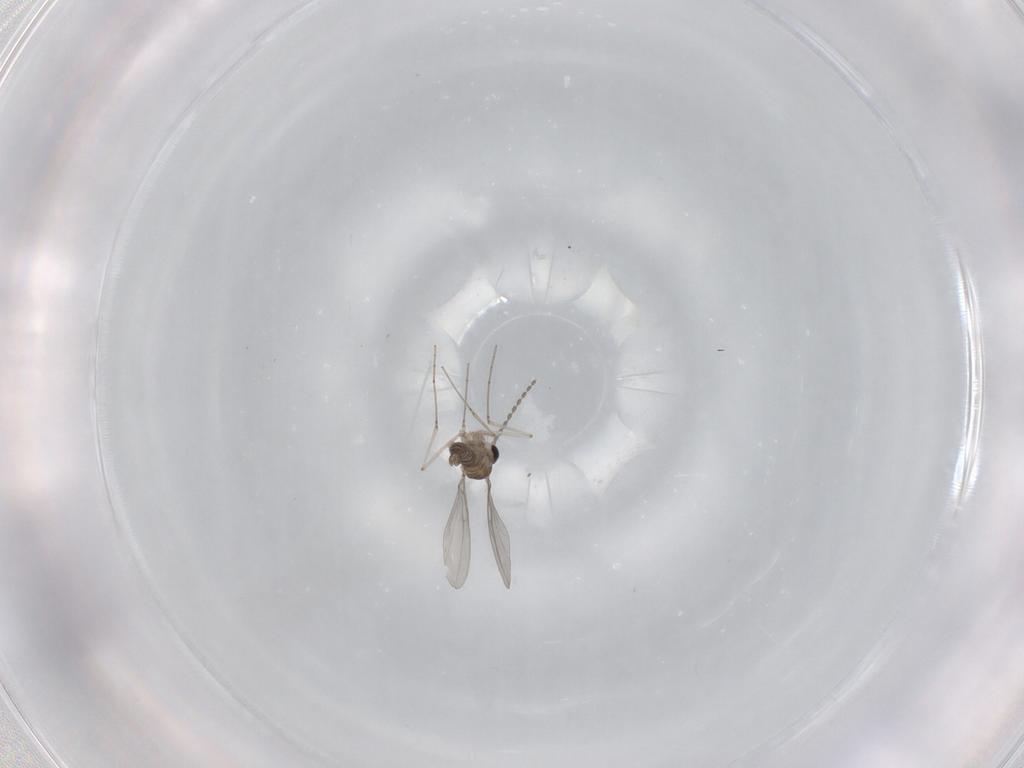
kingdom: Animalia
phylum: Arthropoda
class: Insecta
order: Diptera
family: Cecidomyiidae
